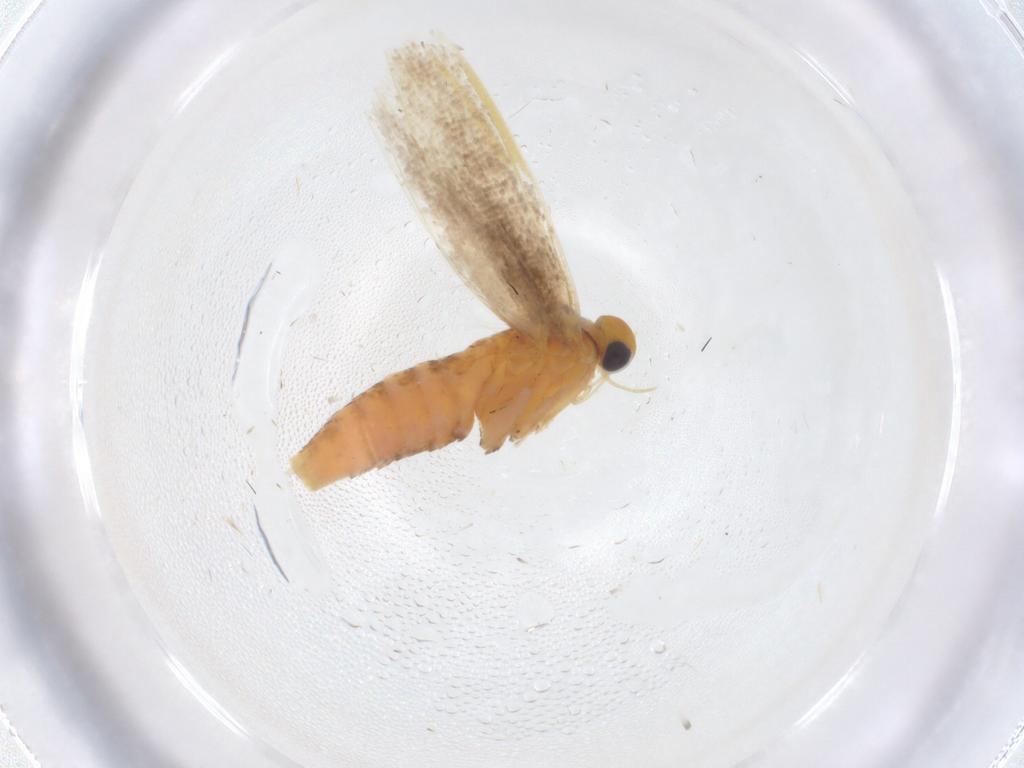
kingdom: Animalia
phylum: Arthropoda
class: Insecta
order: Lepidoptera
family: Argyresthiidae
